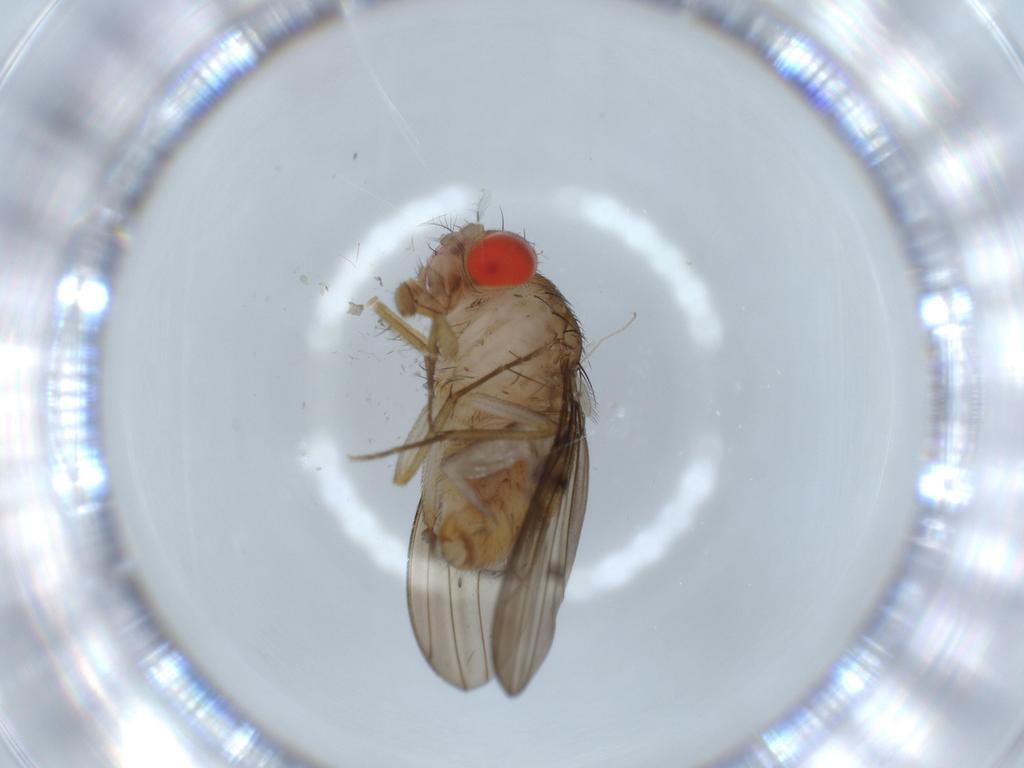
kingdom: Animalia
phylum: Arthropoda
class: Insecta
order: Diptera
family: Drosophilidae
